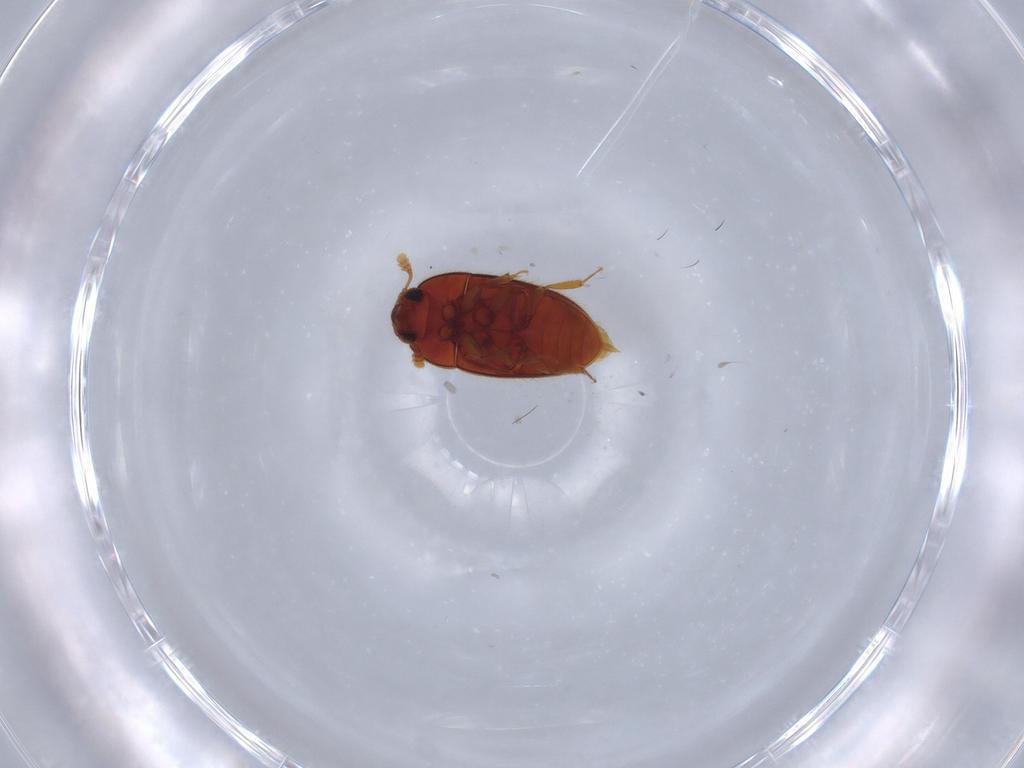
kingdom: Animalia
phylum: Arthropoda
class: Insecta
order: Coleoptera
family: Biphyllidae
